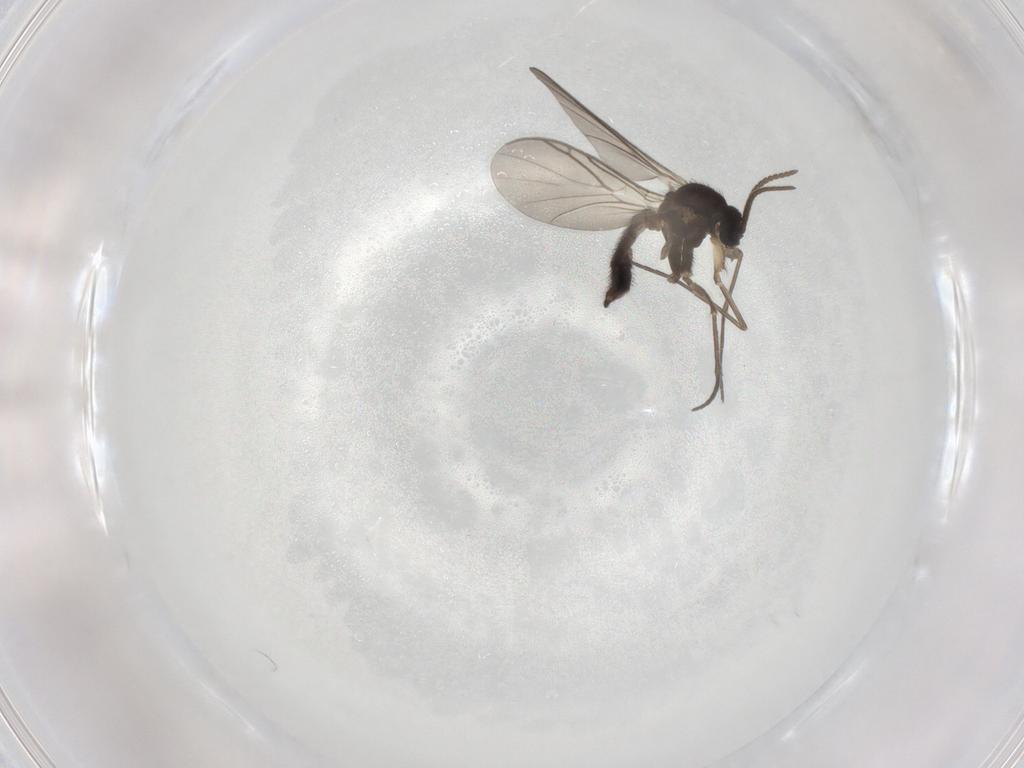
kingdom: Animalia
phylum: Arthropoda
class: Insecta
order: Diptera
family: Keroplatidae
